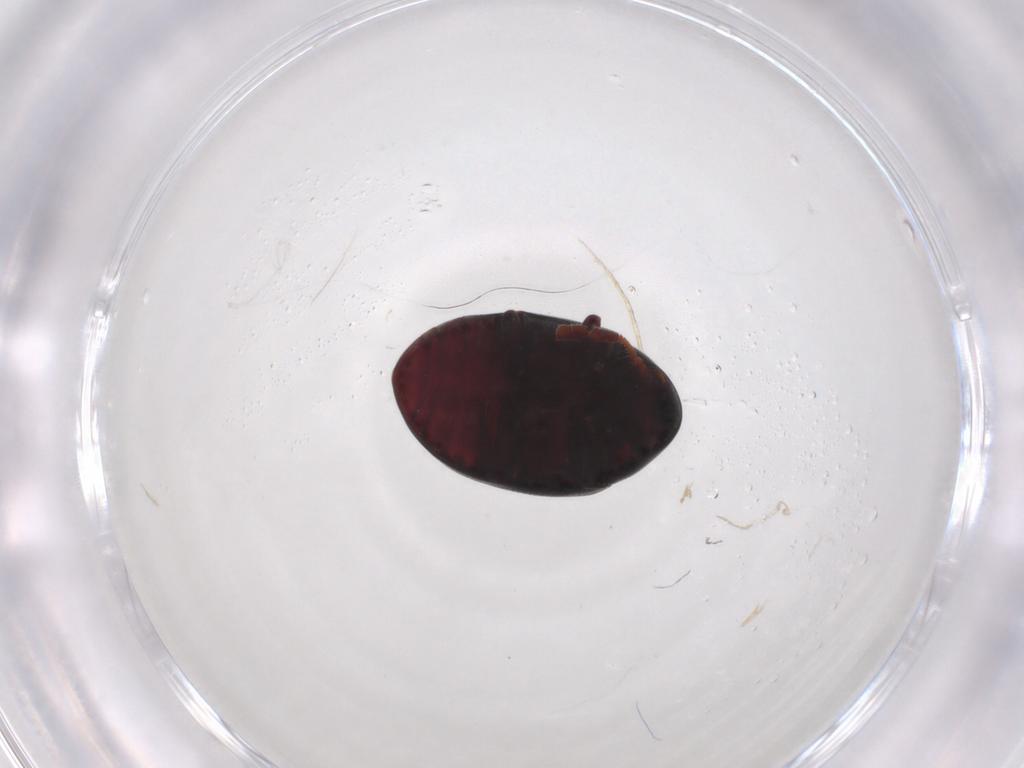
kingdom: Animalia
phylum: Arthropoda
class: Insecta
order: Coleoptera
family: Ptinidae
